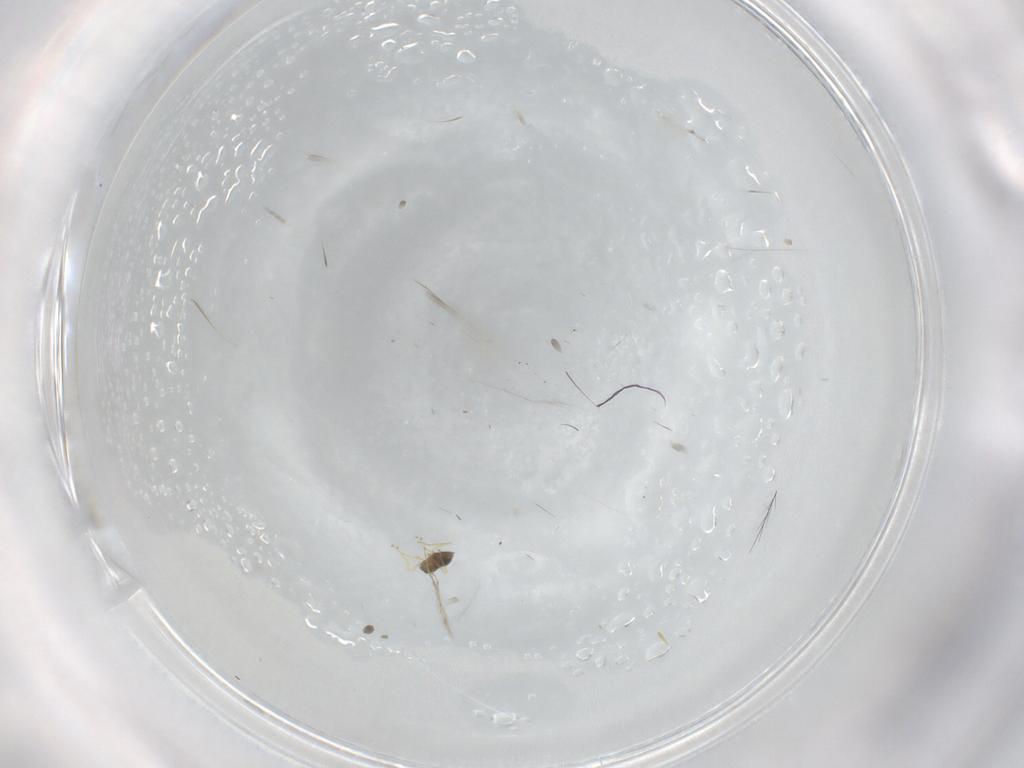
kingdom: Animalia
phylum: Arthropoda
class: Insecta
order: Hymenoptera
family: Mymaridae
